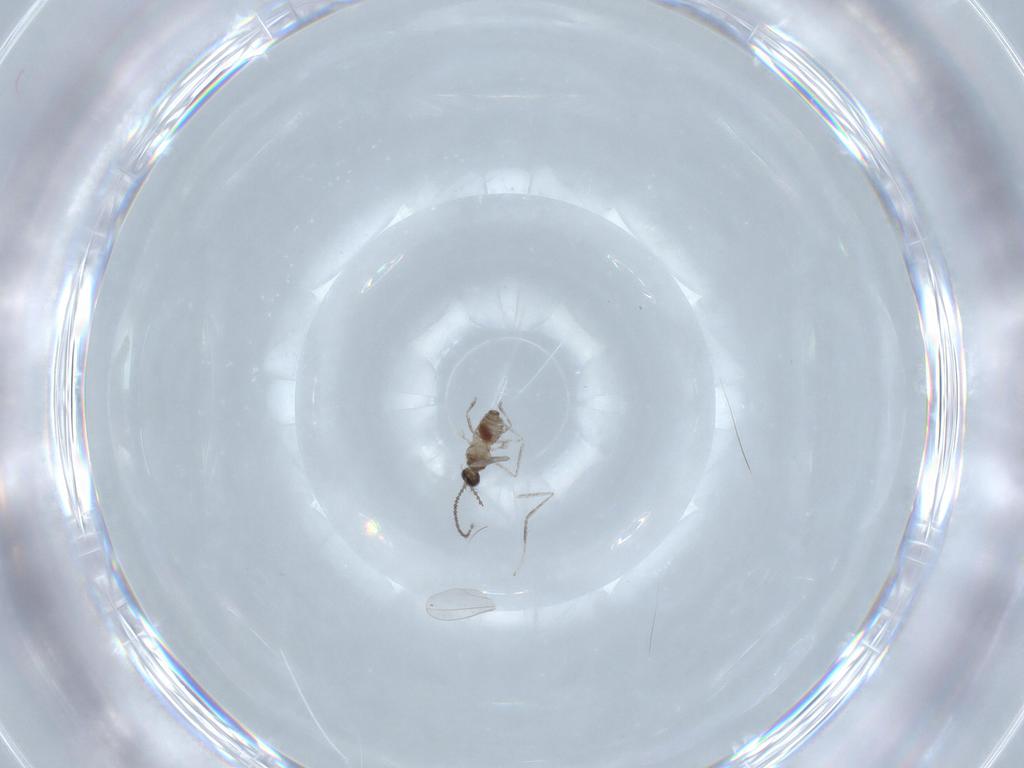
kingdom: Animalia
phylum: Arthropoda
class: Insecta
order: Diptera
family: Cecidomyiidae
